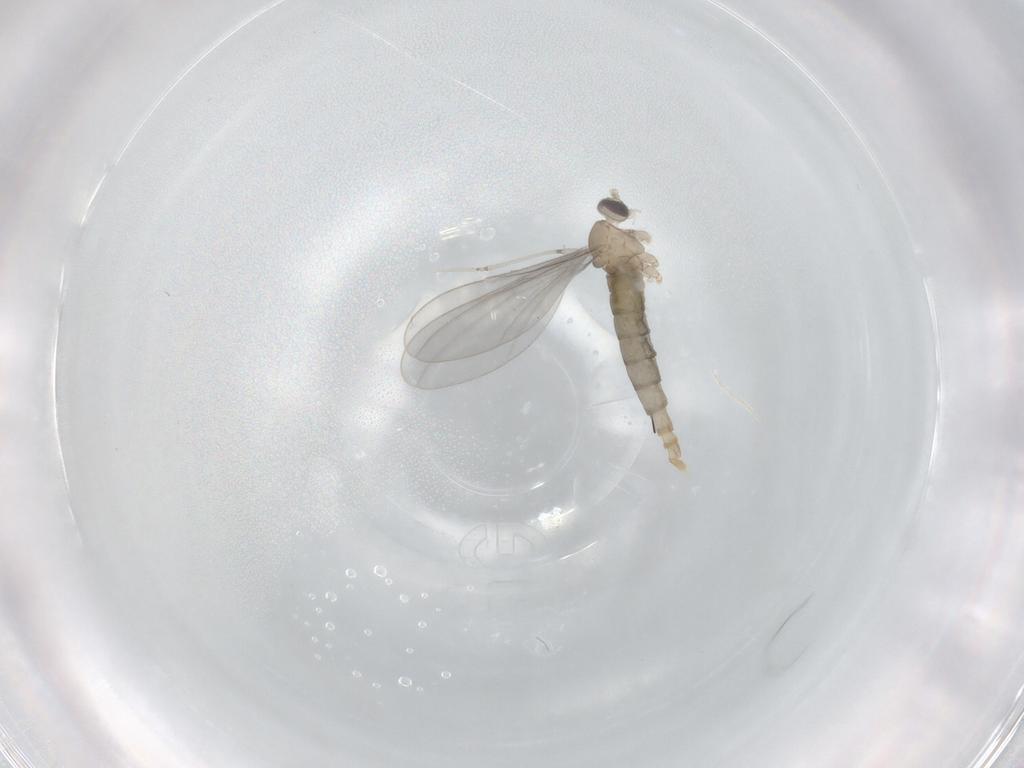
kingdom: Animalia
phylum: Arthropoda
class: Insecta
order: Diptera
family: Cecidomyiidae
